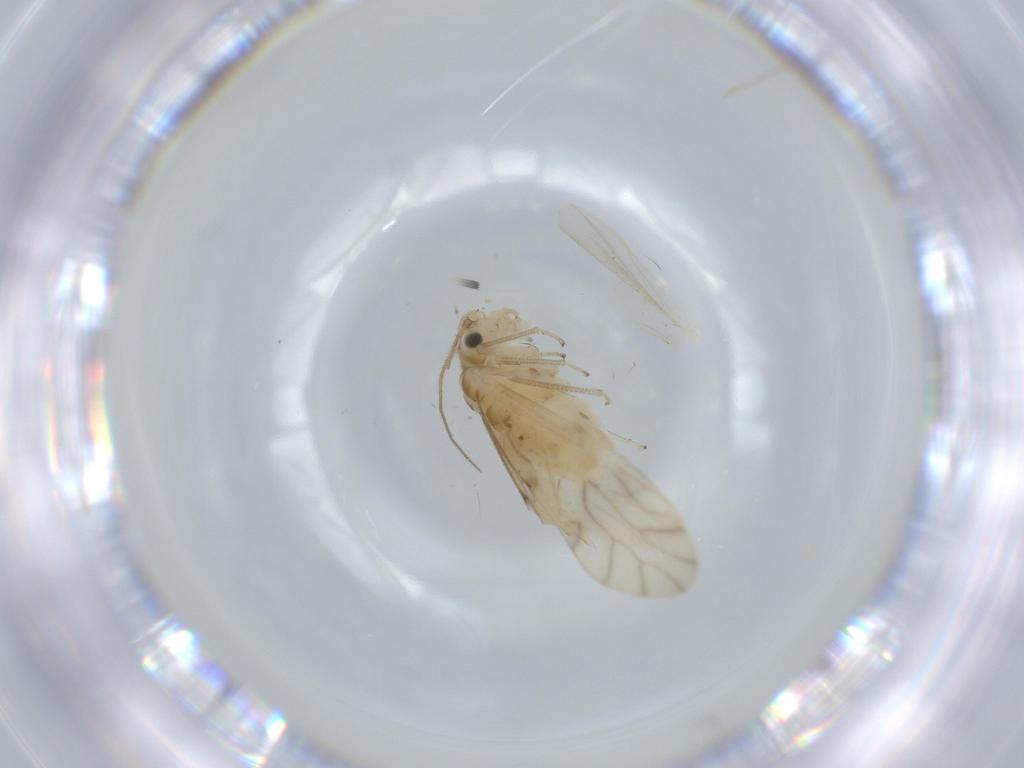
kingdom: Animalia
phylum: Arthropoda
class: Insecta
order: Psocodea
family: Caeciliusidae
